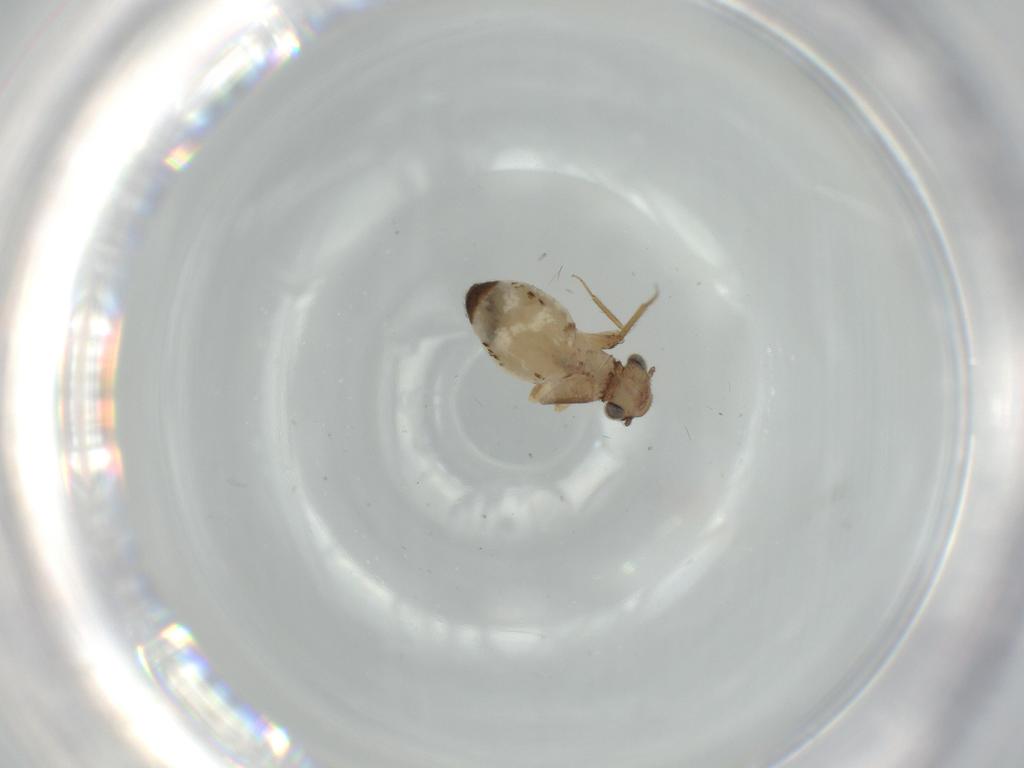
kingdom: Animalia
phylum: Arthropoda
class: Insecta
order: Psocodea
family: Lepidopsocidae
